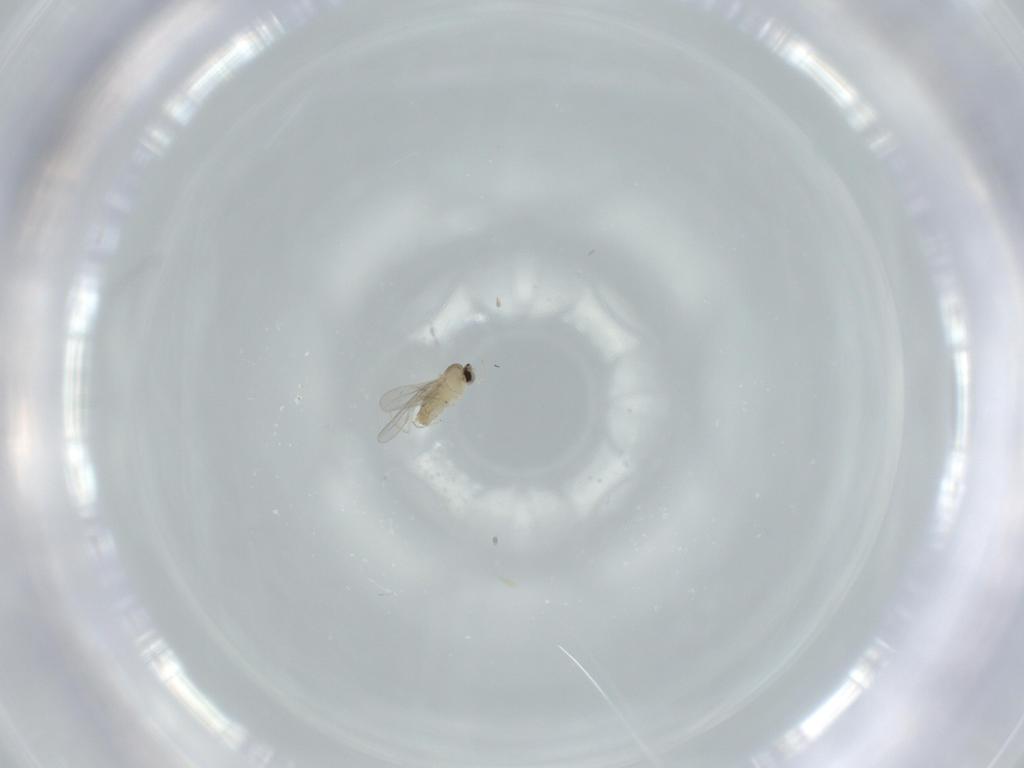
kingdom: Animalia
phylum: Arthropoda
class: Insecta
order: Diptera
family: Cecidomyiidae
